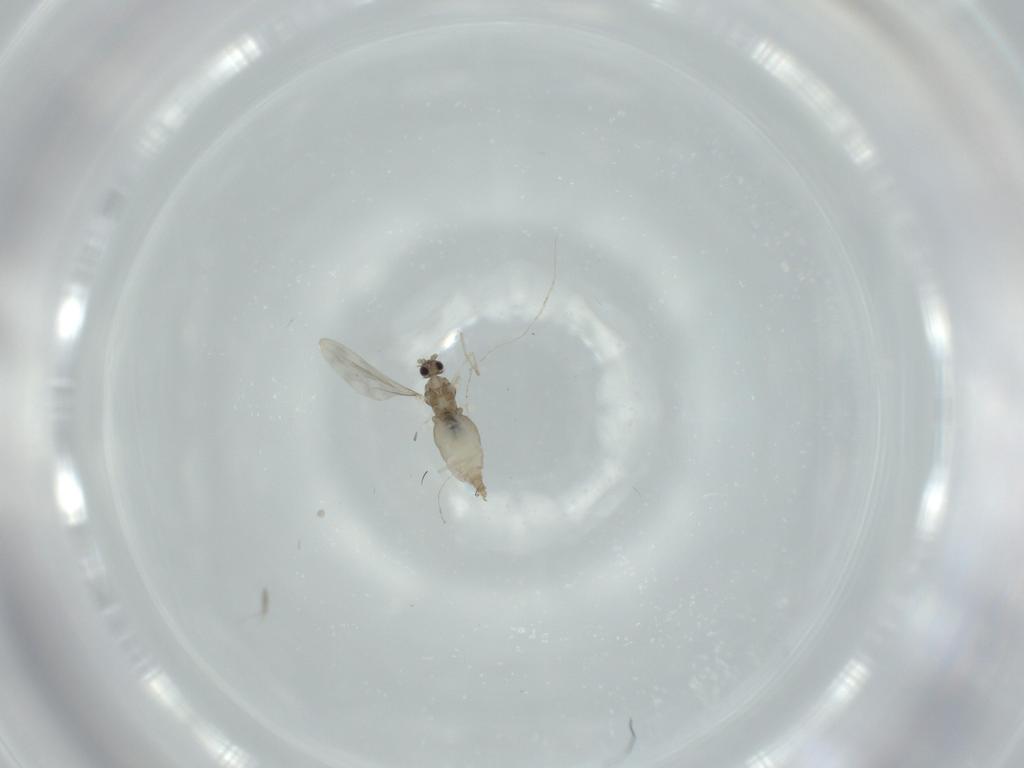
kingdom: Animalia
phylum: Arthropoda
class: Insecta
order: Diptera
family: Cecidomyiidae
